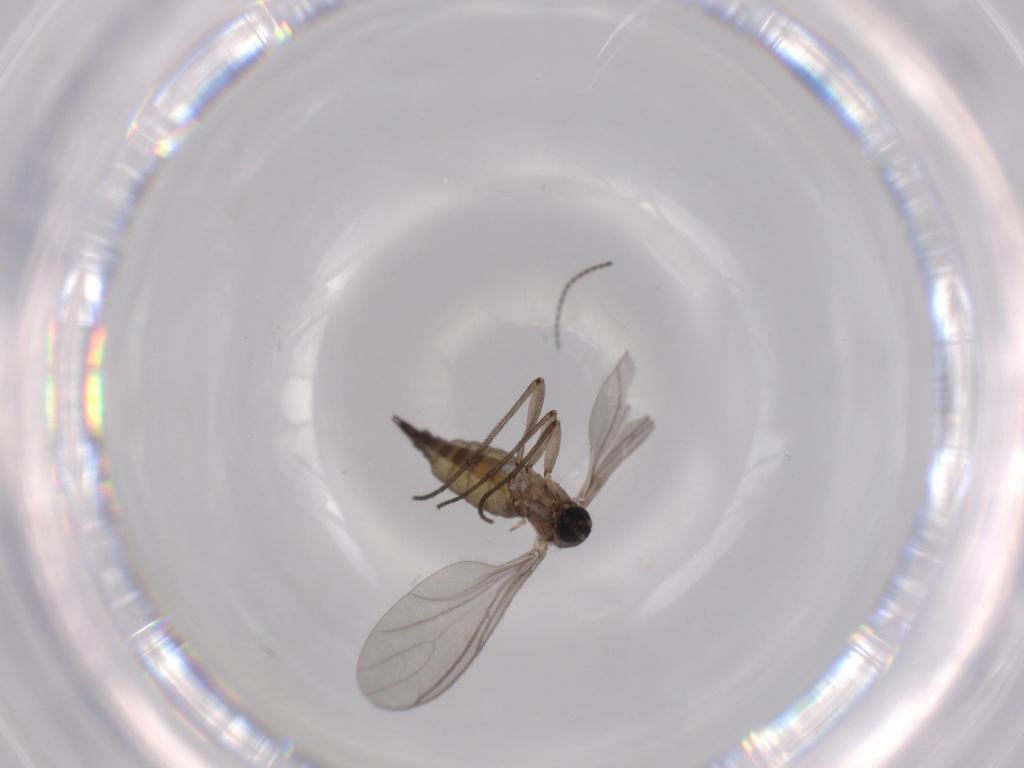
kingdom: Animalia
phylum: Arthropoda
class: Insecta
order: Diptera
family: Sciaridae
